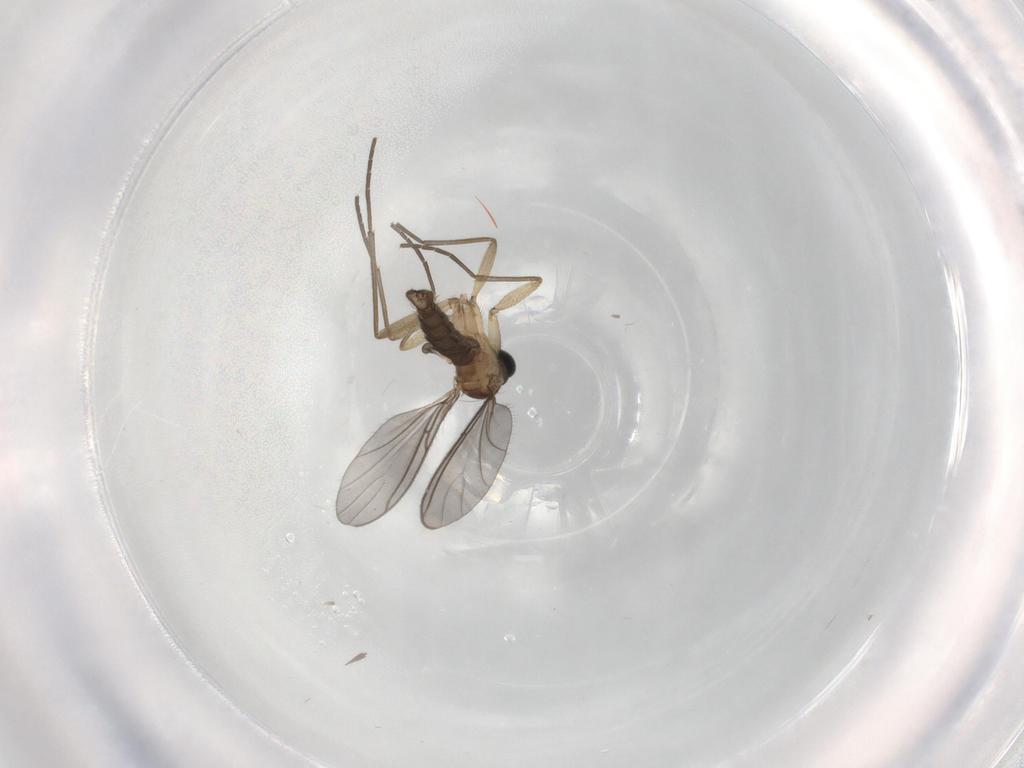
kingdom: Animalia
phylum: Arthropoda
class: Insecta
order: Diptera
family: Sciaridae
